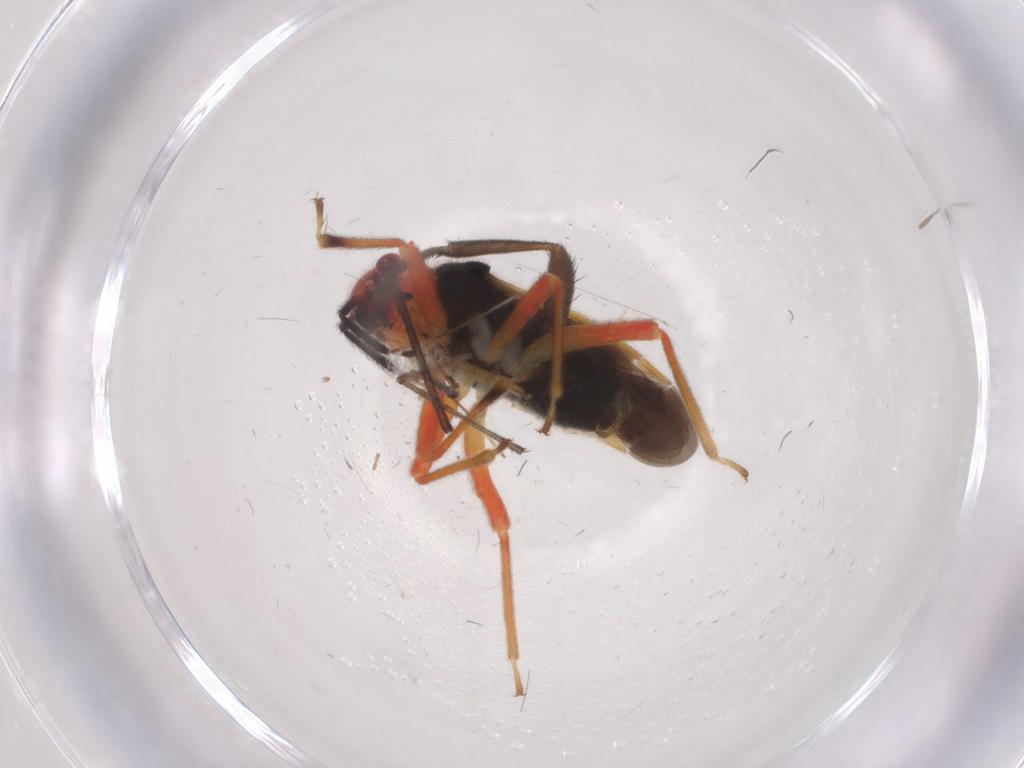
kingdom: Animalia
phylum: Arthropoda
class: Insecta
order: Hemiptera
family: Miridae
